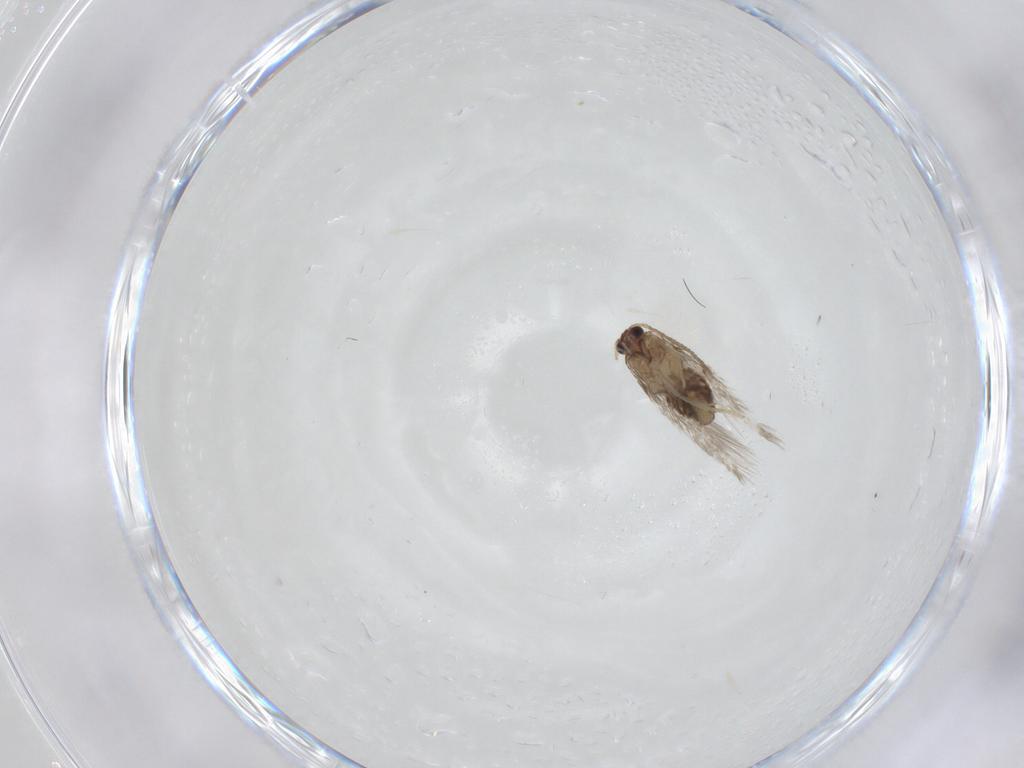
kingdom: Animalia
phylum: Arthropoda
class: Insecta
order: Lepidoptera
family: Nepticulidae
